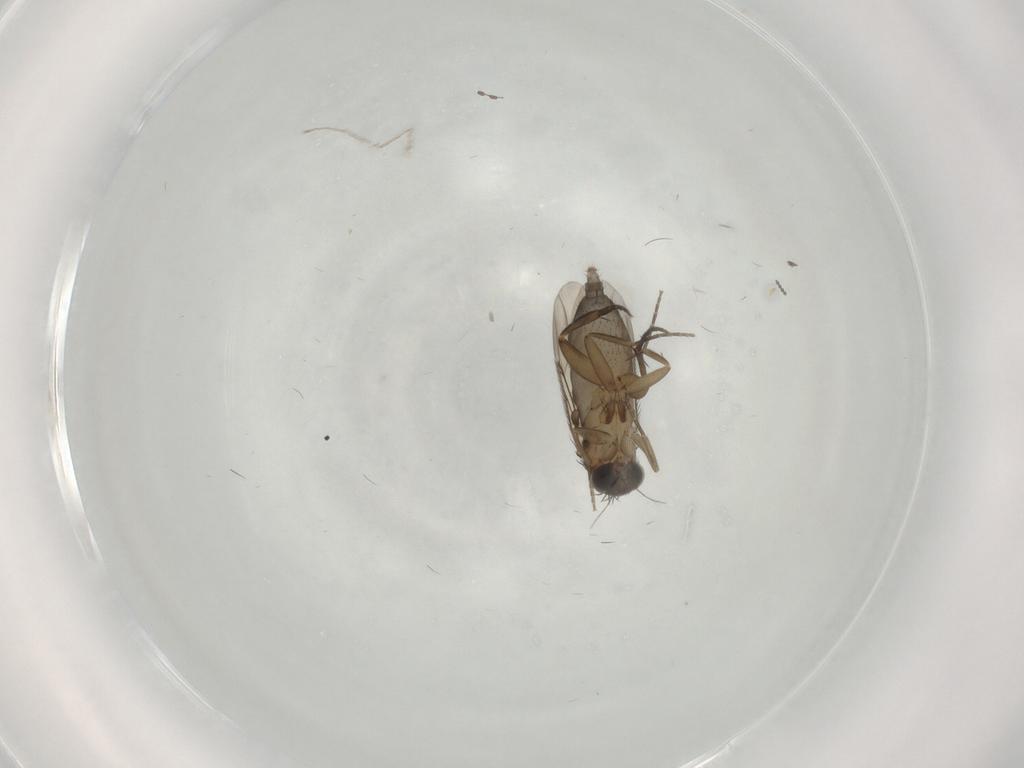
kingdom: Animalia
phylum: Arthropoda
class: Insecta
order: Diptera
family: Phoridae
